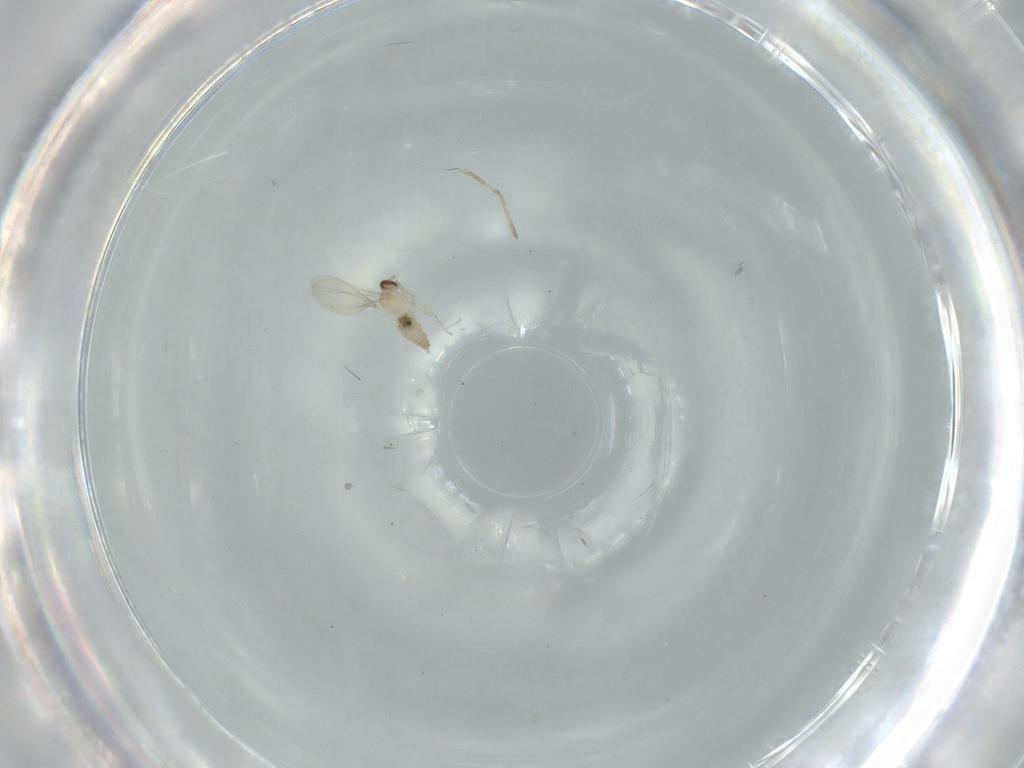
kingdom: Animalia
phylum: Arthropoda
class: Insecta
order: Diptera
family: Cecidomyiidae
